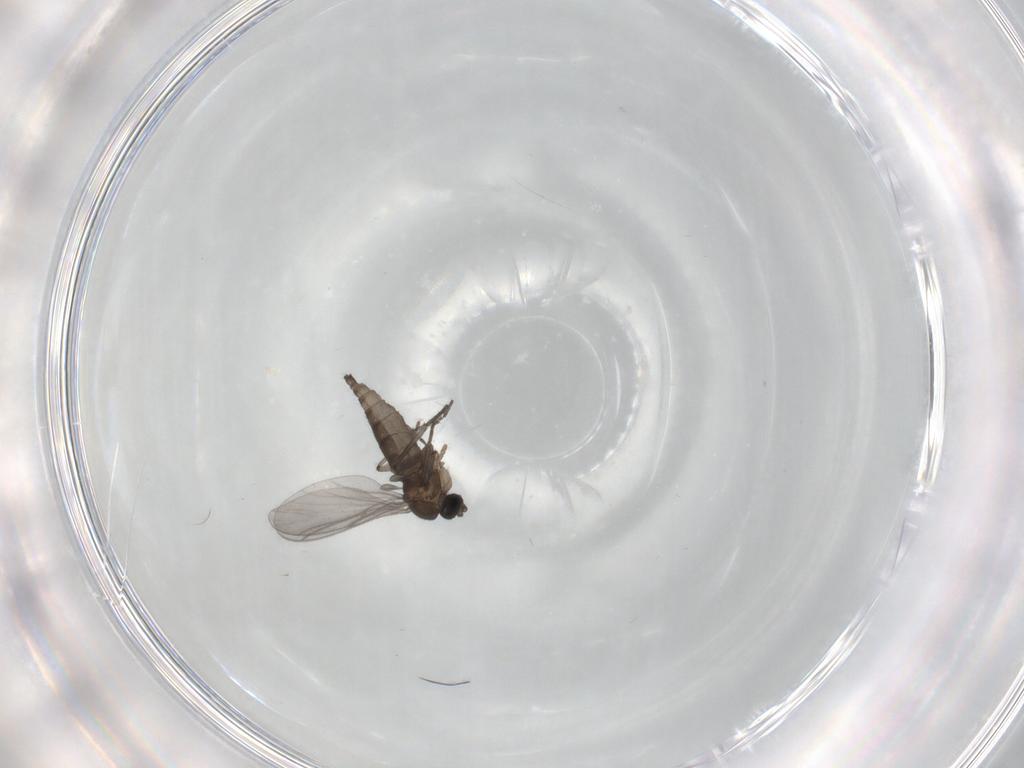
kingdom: Animalia
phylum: Arthropoda
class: Insecta
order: Diptera
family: Sciaridae
